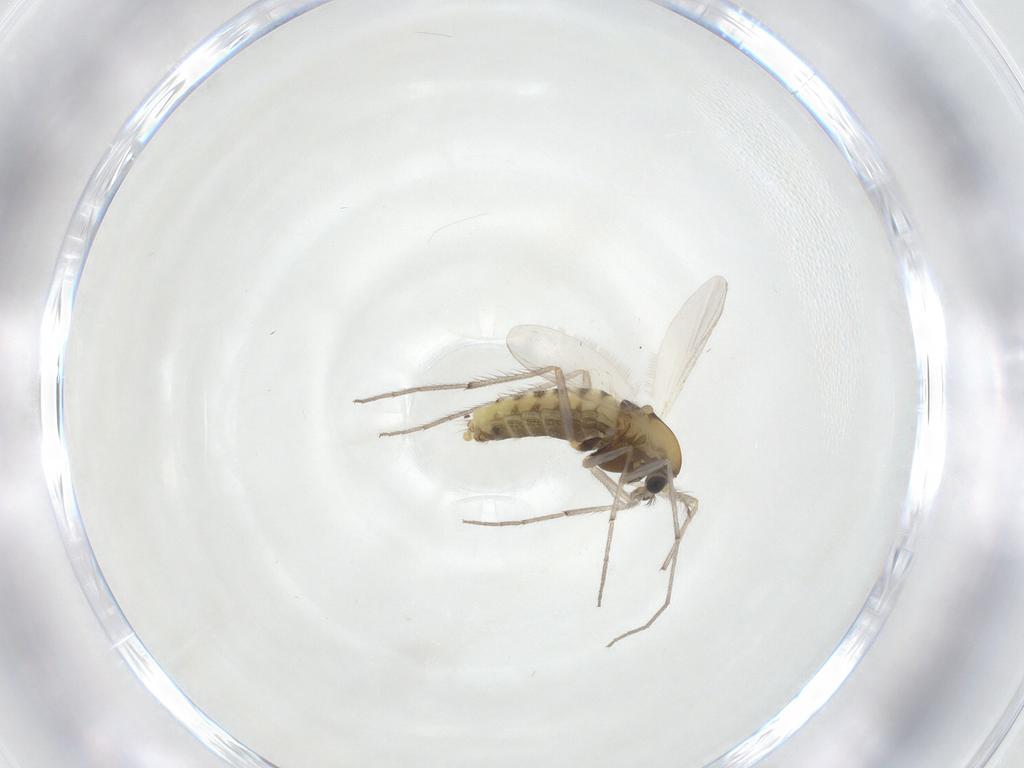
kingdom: Animalia
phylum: Arthropoda
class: Insecta
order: Diptera
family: Chironomidae
